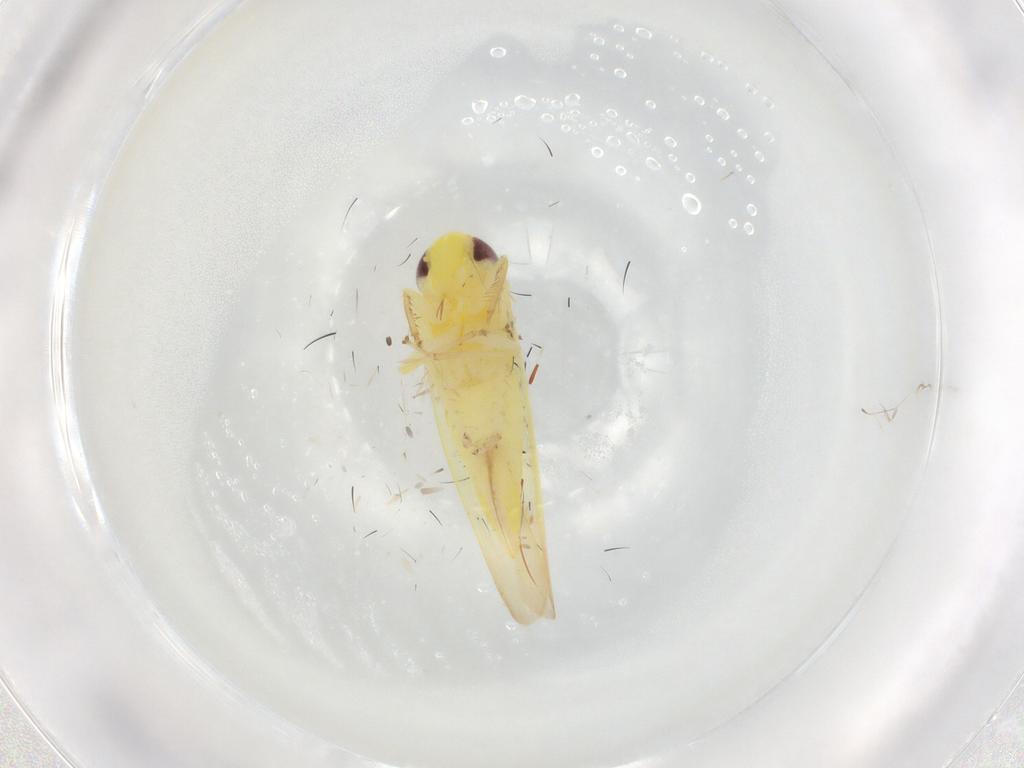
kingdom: Animalia
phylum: Arthropoda
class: Insecta
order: Hemiptera
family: Cicadellidae
